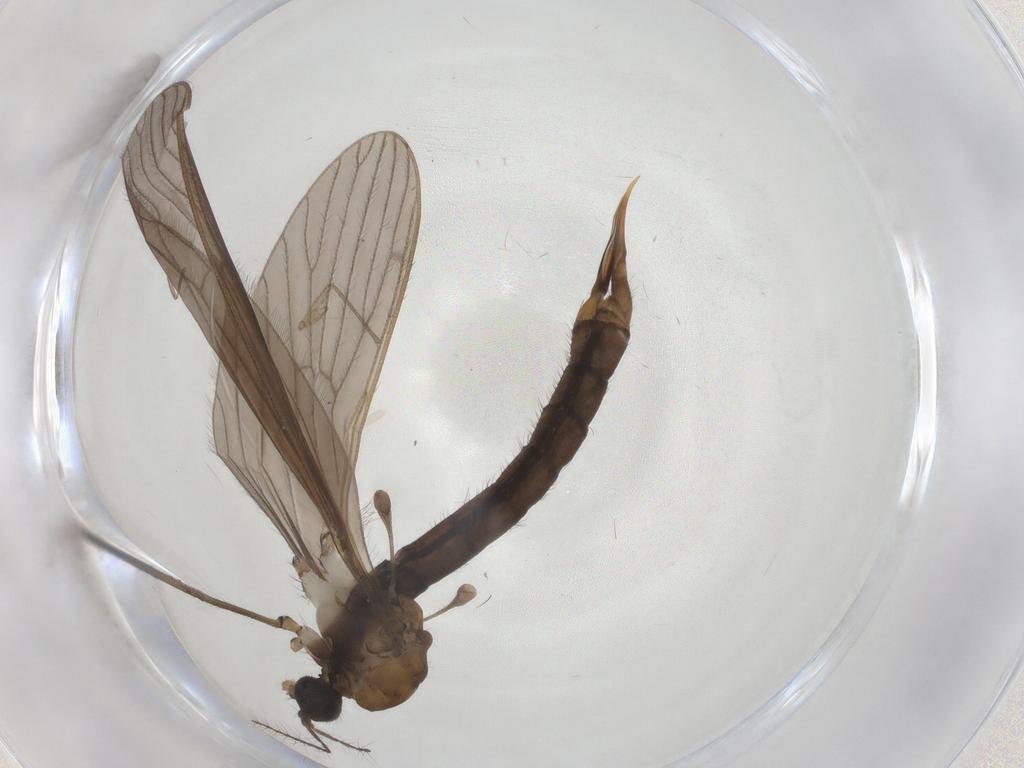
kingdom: Animalia
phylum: Arthropoda
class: Insecta
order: Diptera
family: Limoniidae
